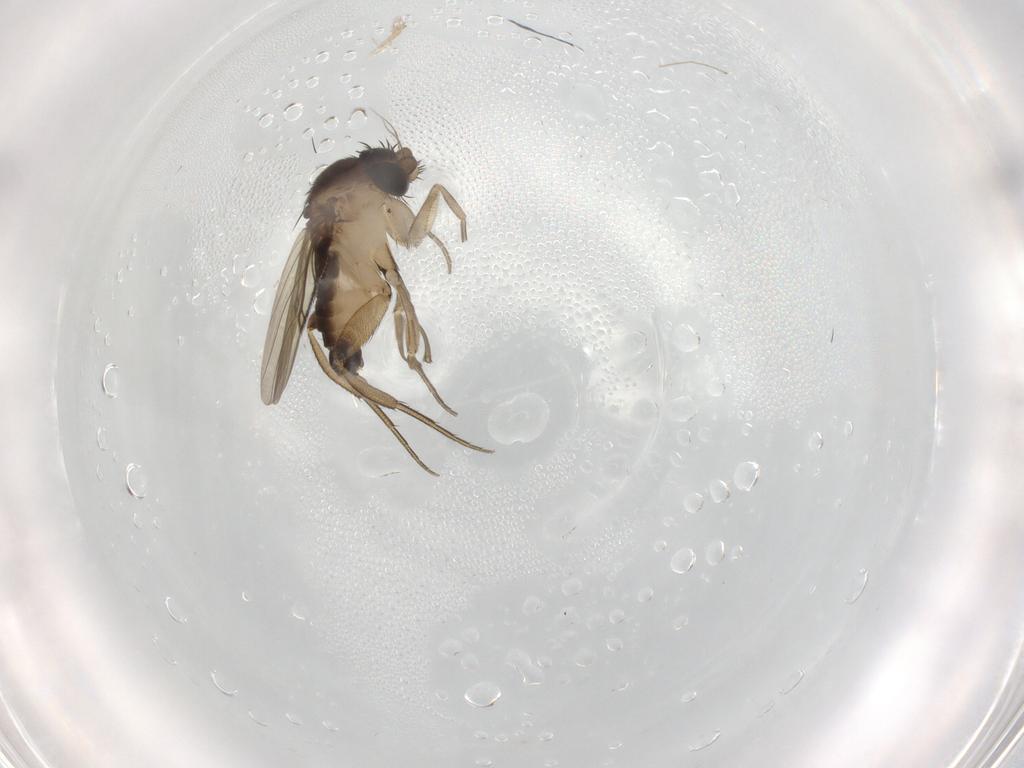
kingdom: Animalia
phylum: Arthropoda
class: Insecta
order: Diptera
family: Phoridae
